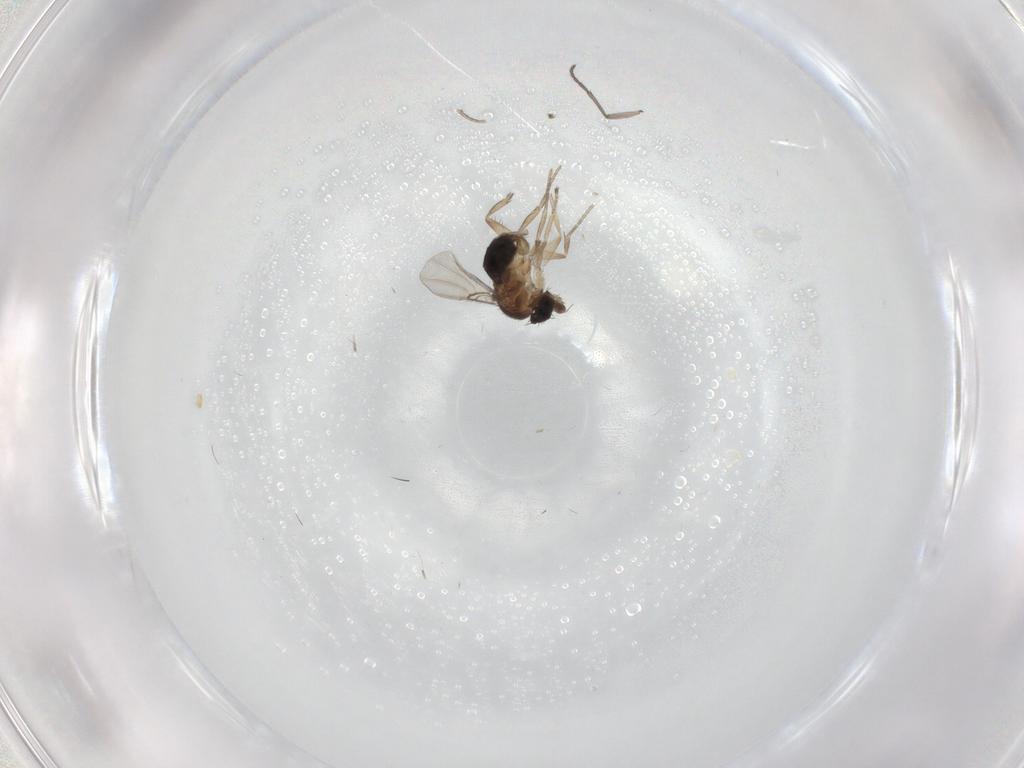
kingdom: Animalia
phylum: Arthropoda
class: Insecta
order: Diptera
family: Phoridae
